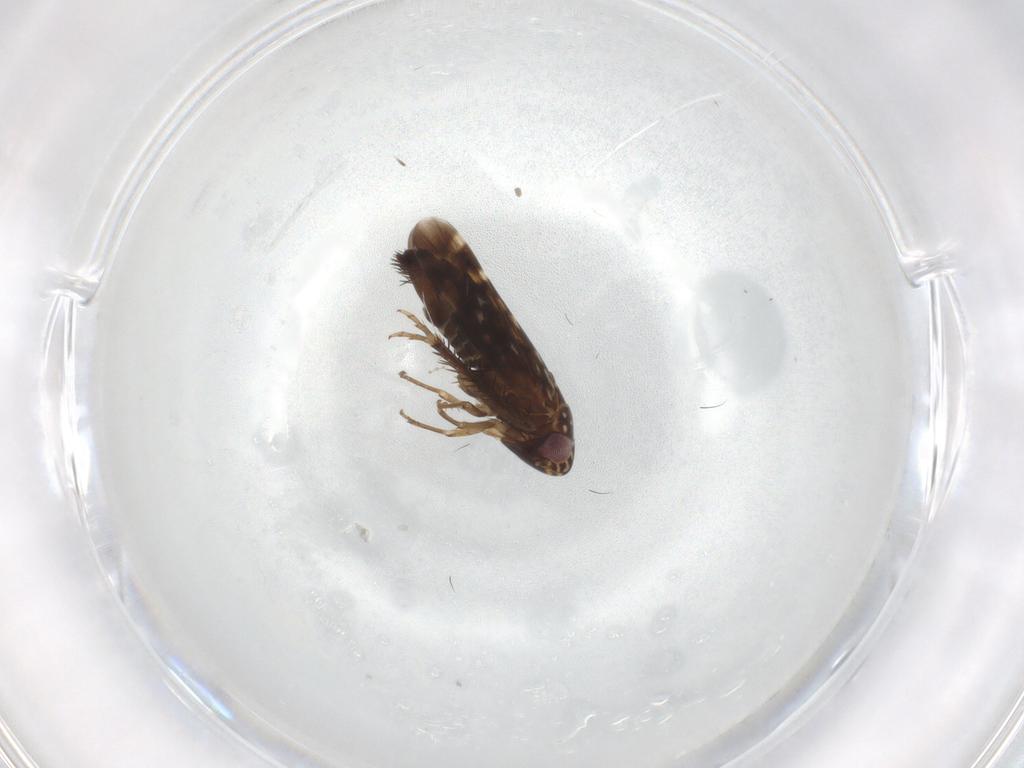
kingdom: Animalia
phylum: Arthropoda
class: Insecta
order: Hemiptera
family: Cicadellidae
